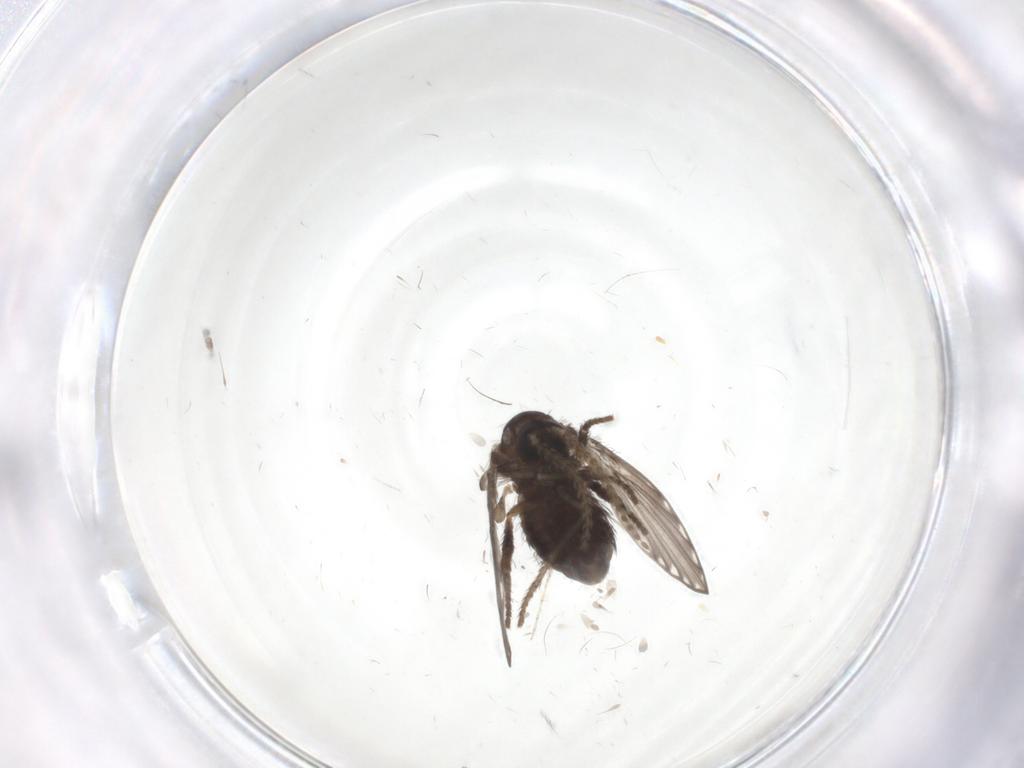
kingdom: Animalia
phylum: Arthropoda
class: Insecta
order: Diptera
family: Psychodidae
